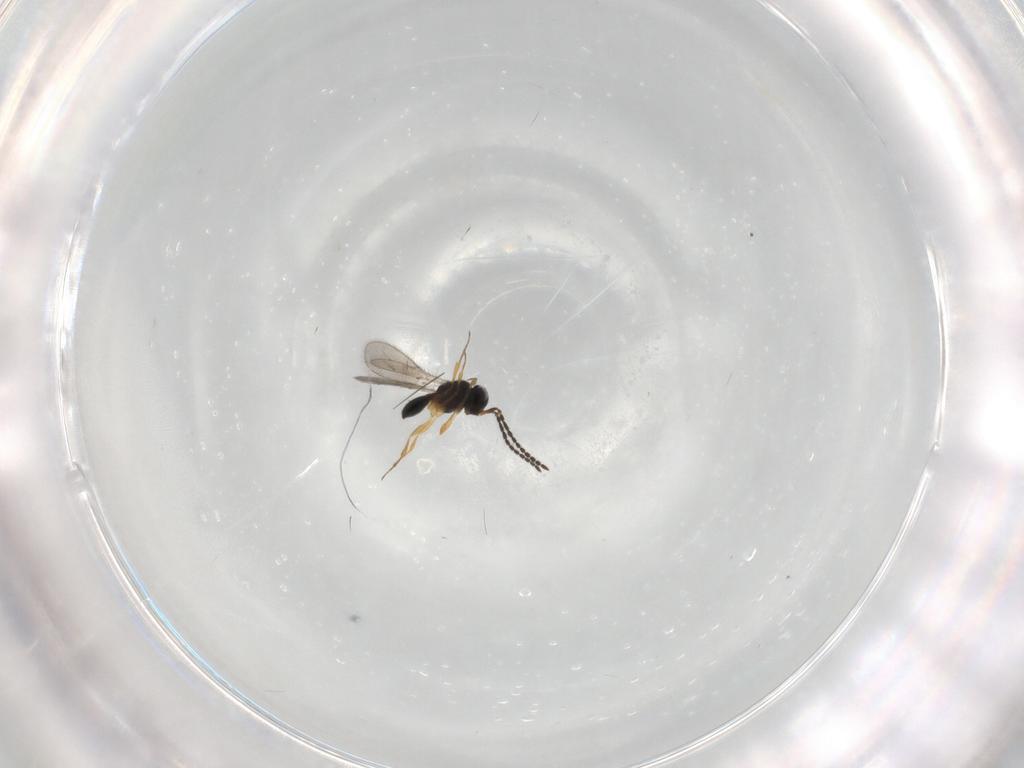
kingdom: Animalia
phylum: Arthropoda
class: Insecta
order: Hymenoptera
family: Scelionidae
